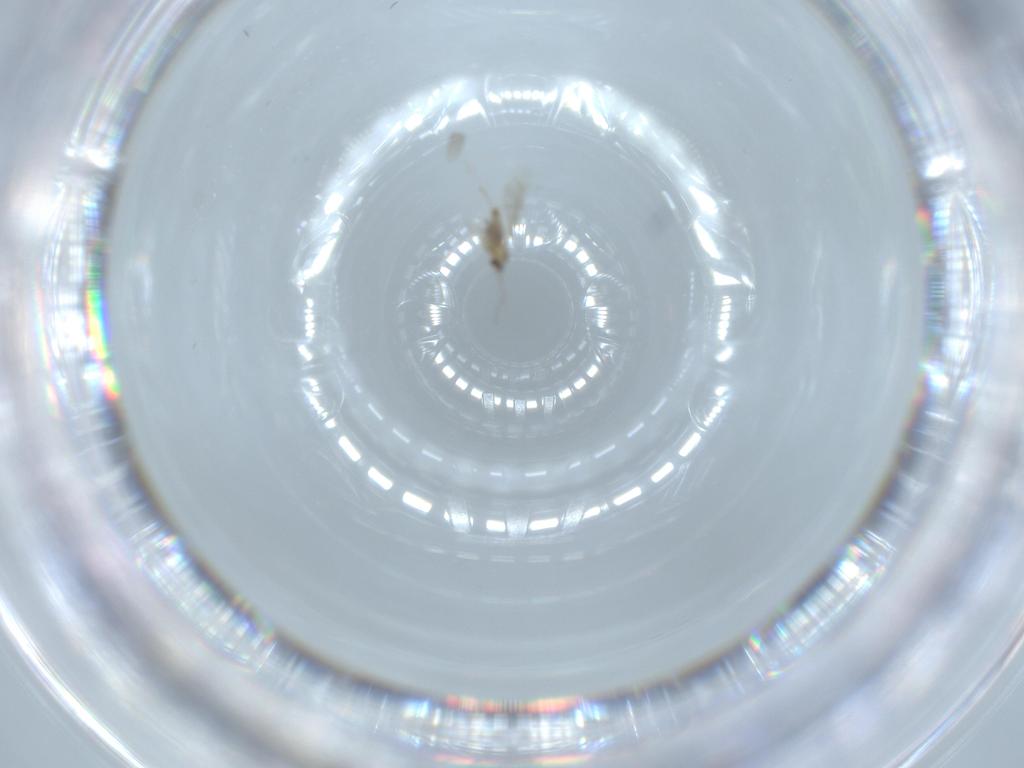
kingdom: Animalia
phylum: Arthropoda
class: Insecta
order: Diptera
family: Cecidomyiidae
